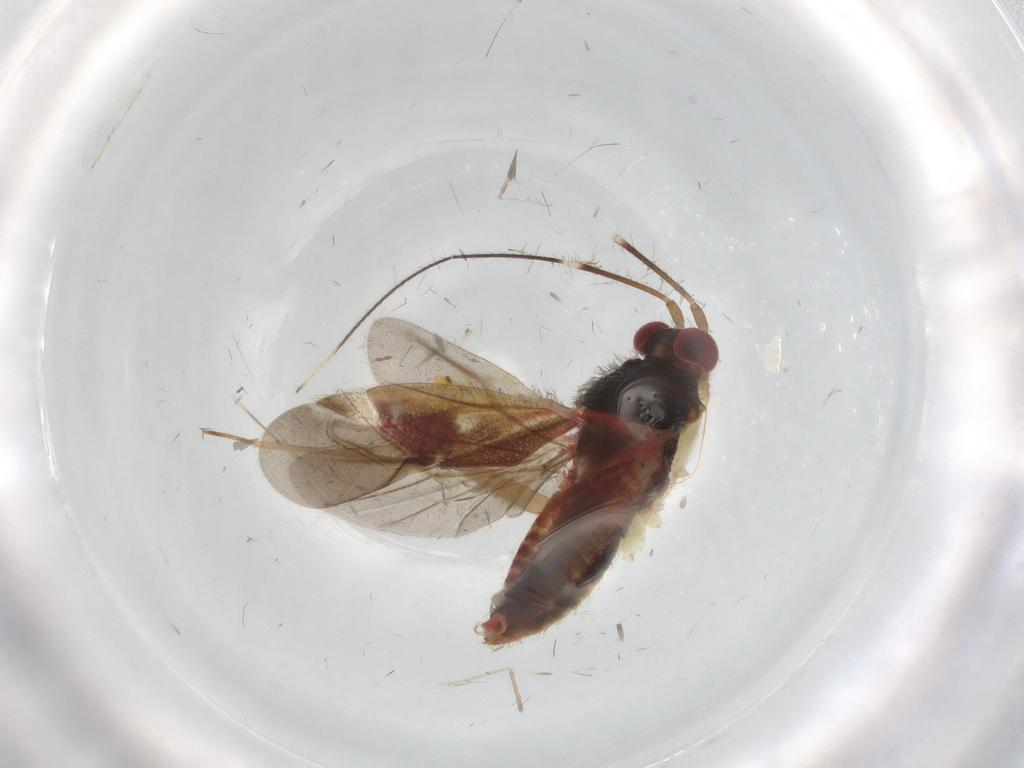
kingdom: Animalia
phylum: Arthropoda
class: Insecta
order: Hemiptera
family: Aleyrodidae
